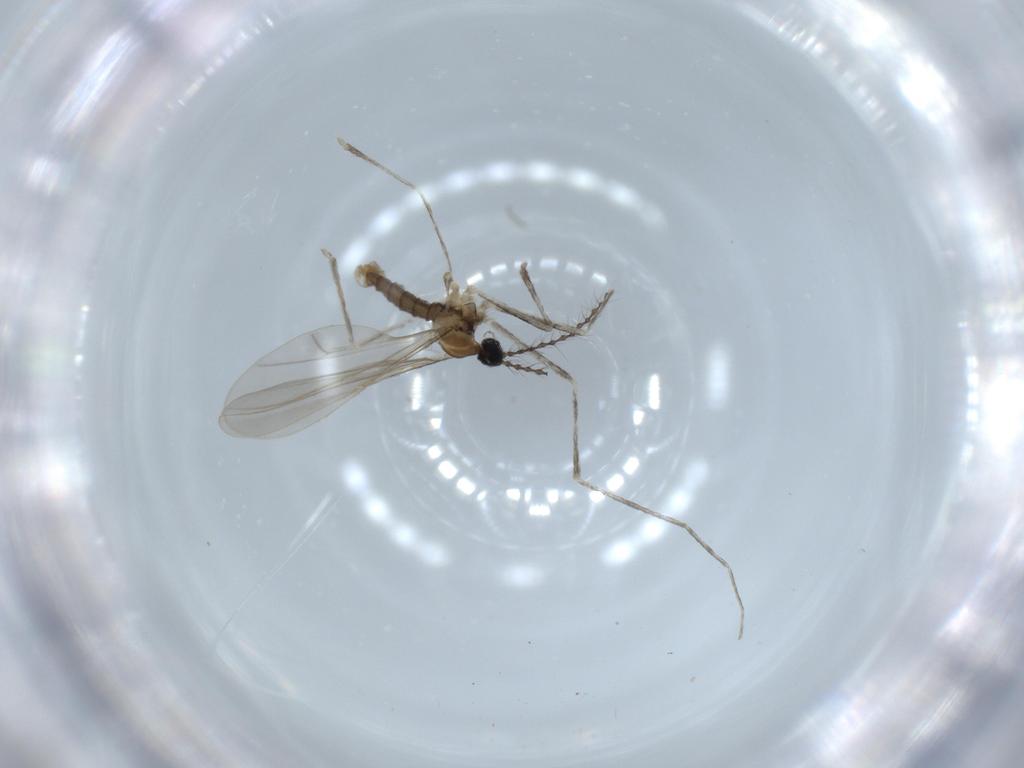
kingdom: Animalia
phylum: Arthropoda
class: Insecta
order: Diptera
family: Cecidomyiidae
